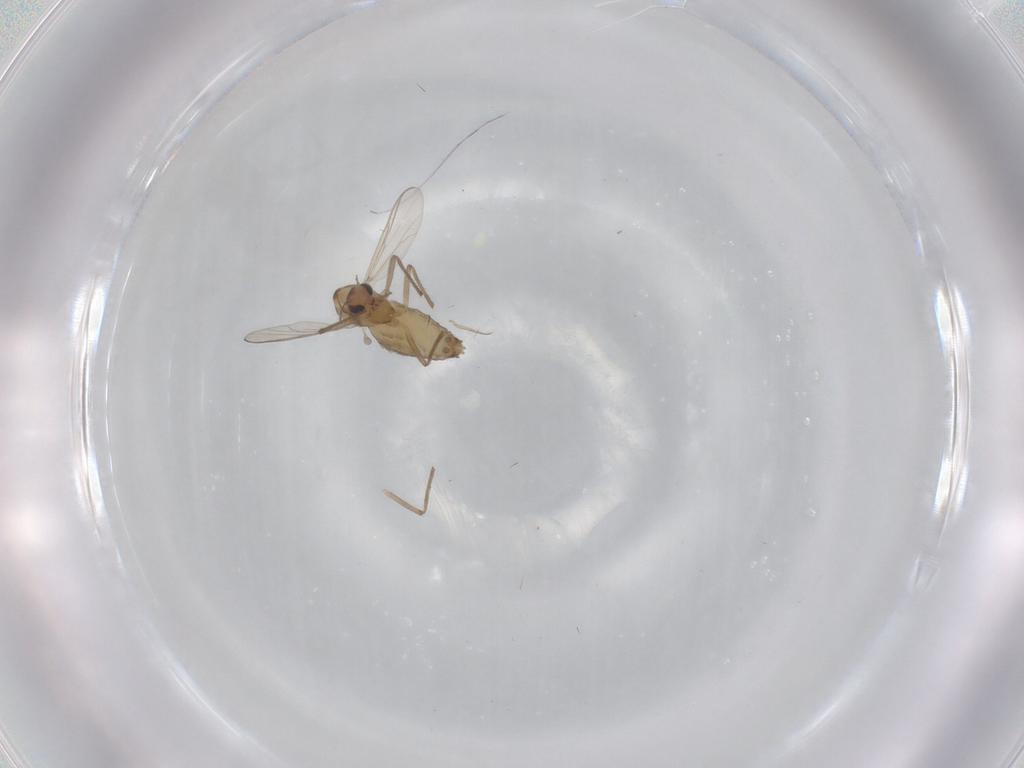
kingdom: Animalia
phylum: Arthropoda
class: Insecta
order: Diptera
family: Chironomidae
